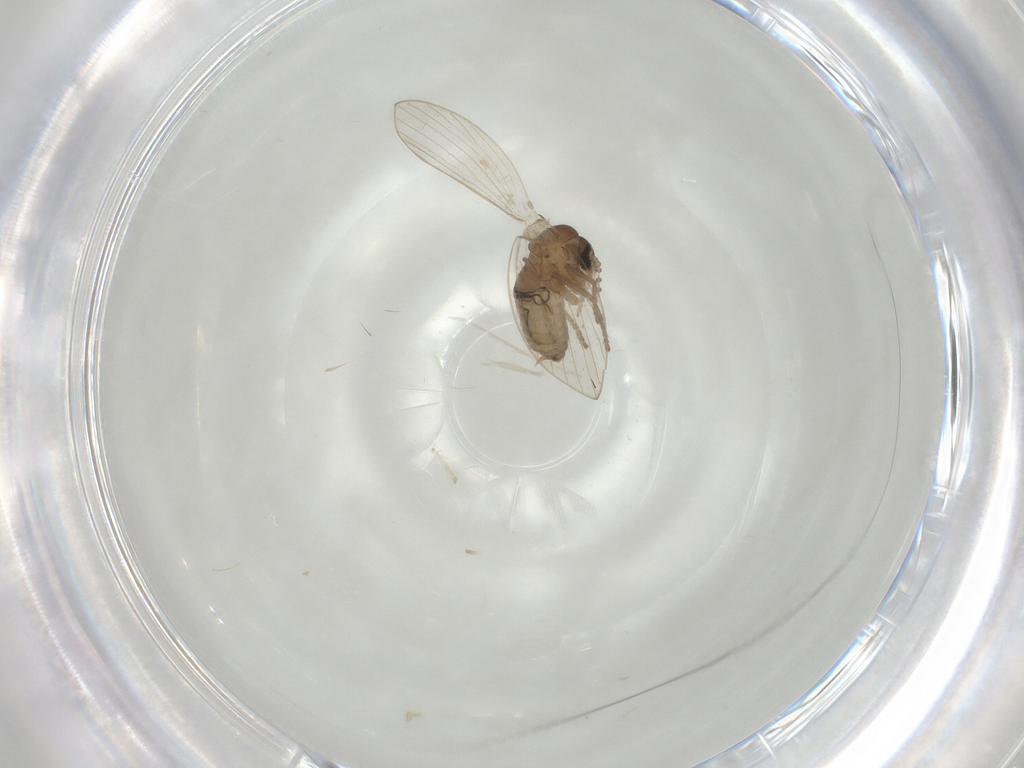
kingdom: Animalia
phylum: Arthropoda
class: Insecta
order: Diptera
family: Psychodidae
